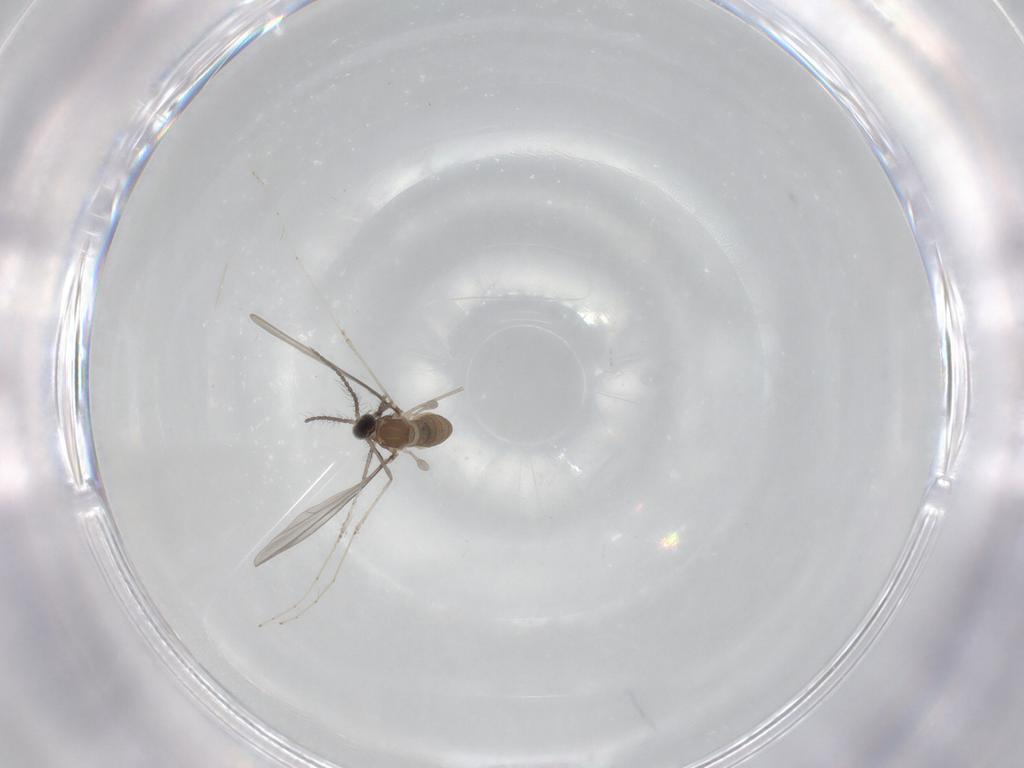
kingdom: Animalia
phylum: Arthropoda
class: Insecta
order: Diptera
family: Cecidomyiidae
